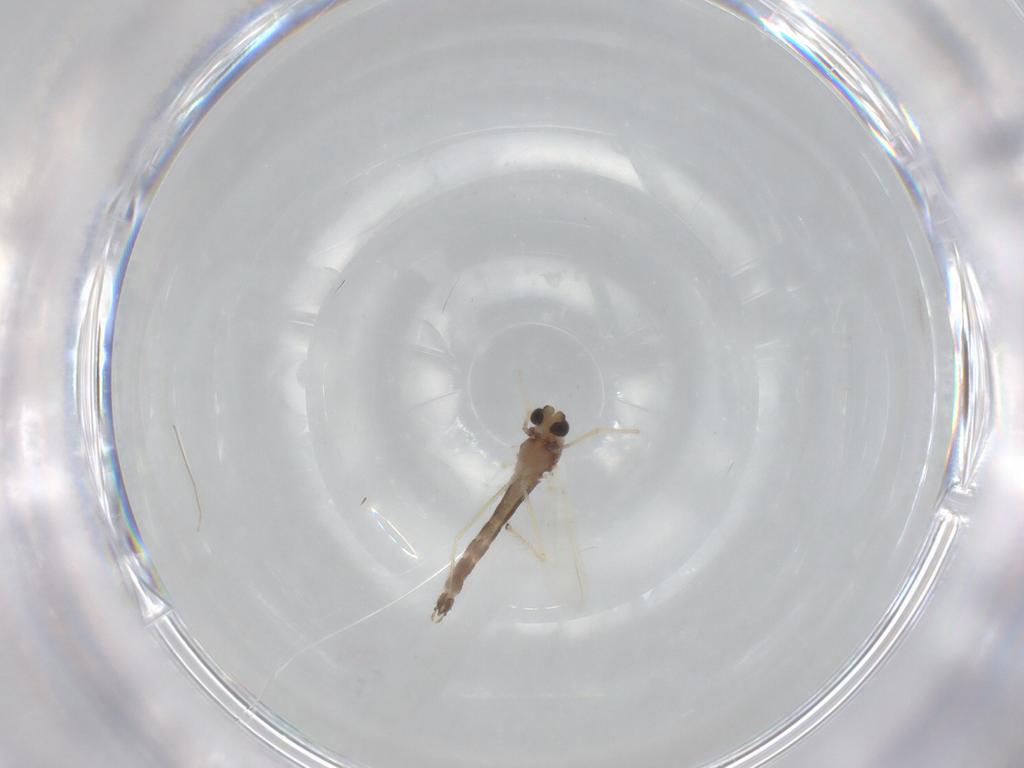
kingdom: Animalia
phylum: Arthropoda
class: Insecta
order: Diptera
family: Chironomidae
